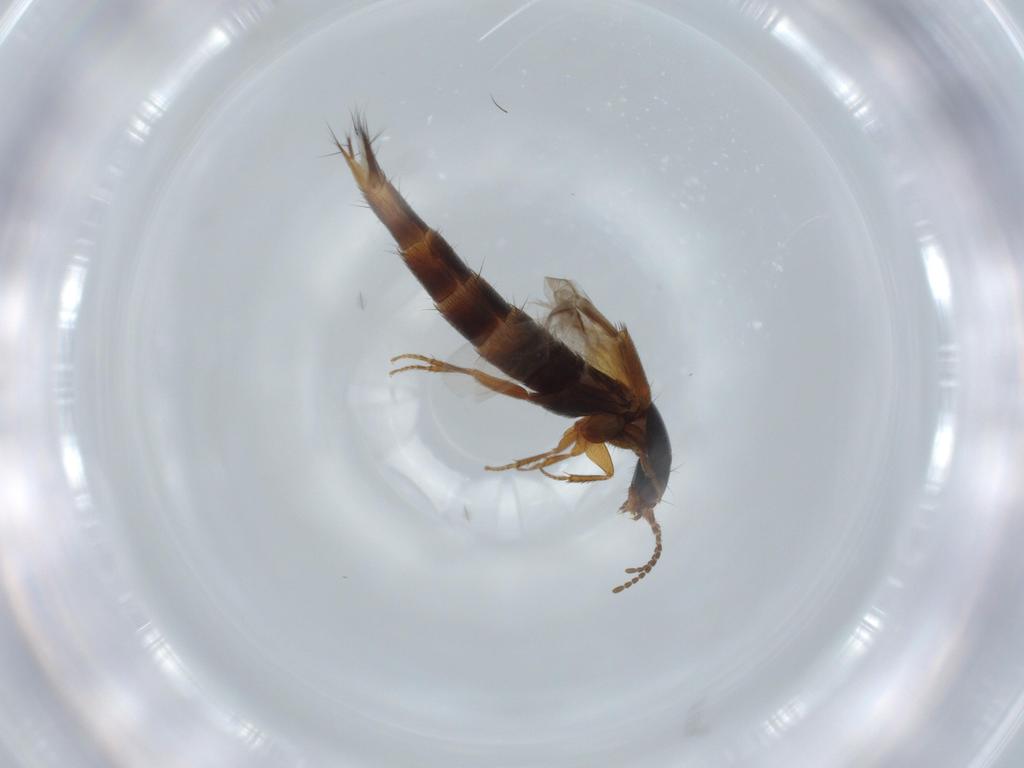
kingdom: Animalia
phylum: Arthropoda
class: Insecta
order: Coleoptera
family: Staphylinidae
